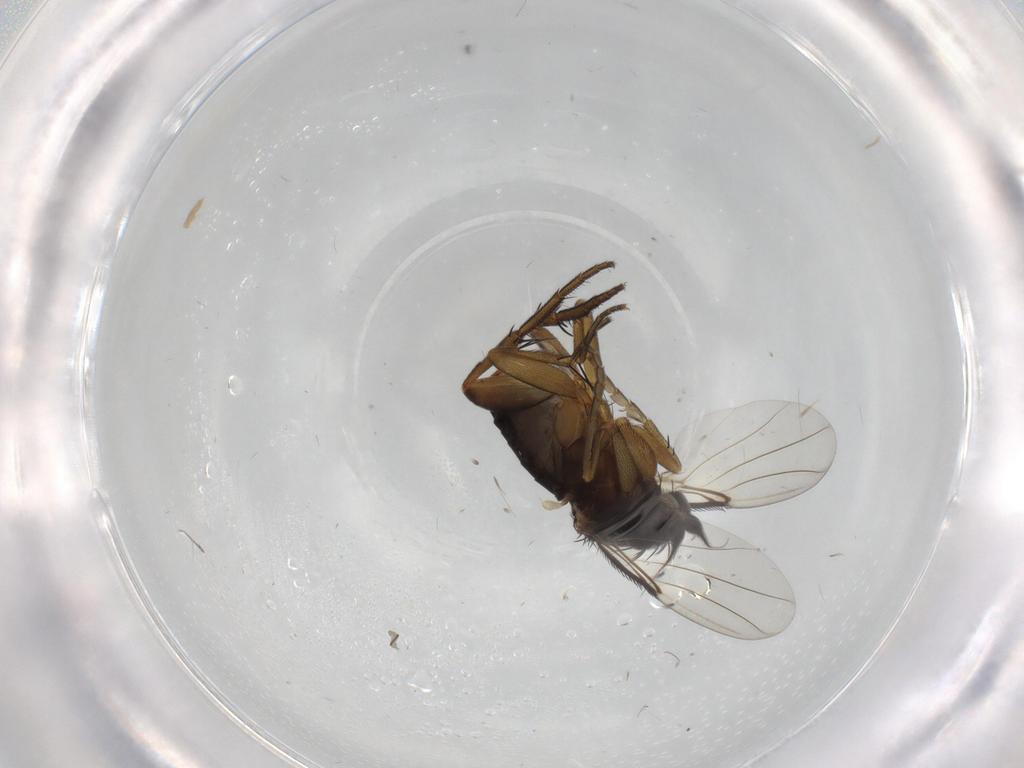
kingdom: Animalia
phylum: Arthropoda
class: Insecta
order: Diptera
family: Phoridae
